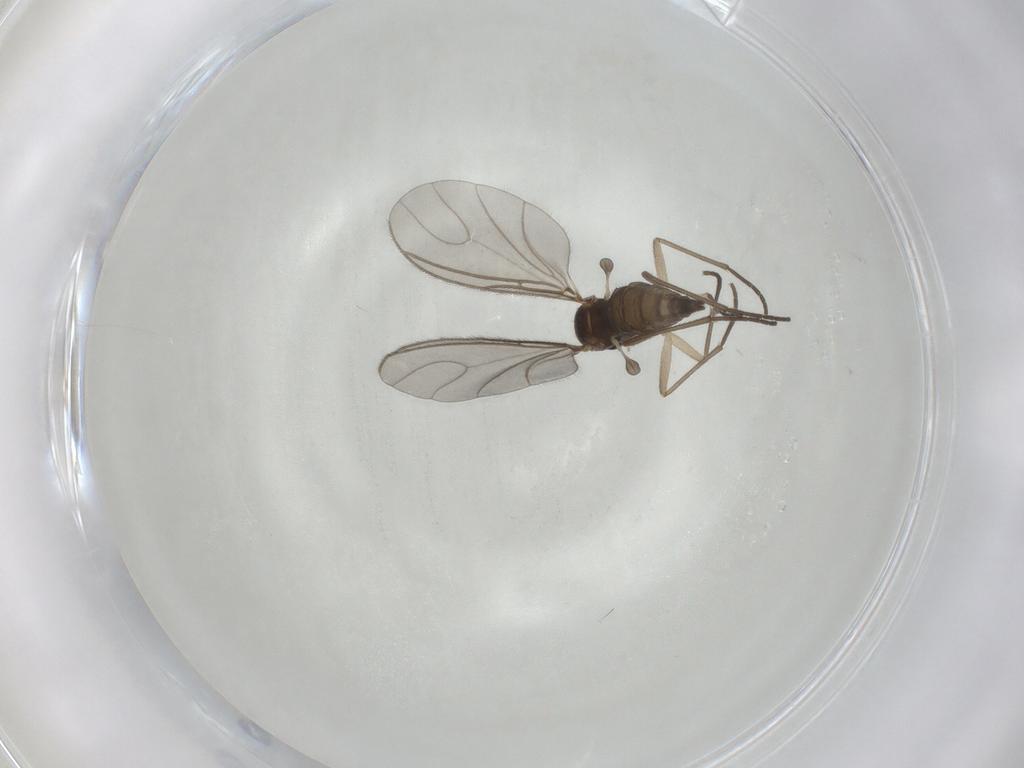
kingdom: Animalia
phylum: Arthropoda
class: Insecta
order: Diptera
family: Sciaridae
